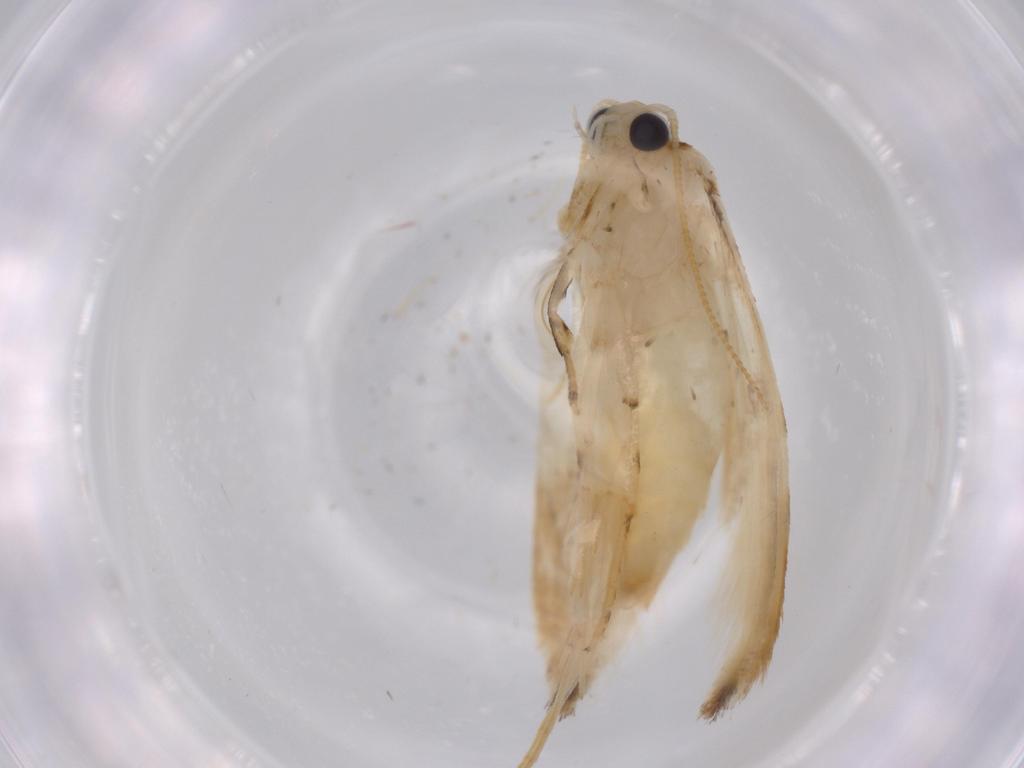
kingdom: Animalia
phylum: Arthropoda
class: Insecta
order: Lepidoptera
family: Tineidae
